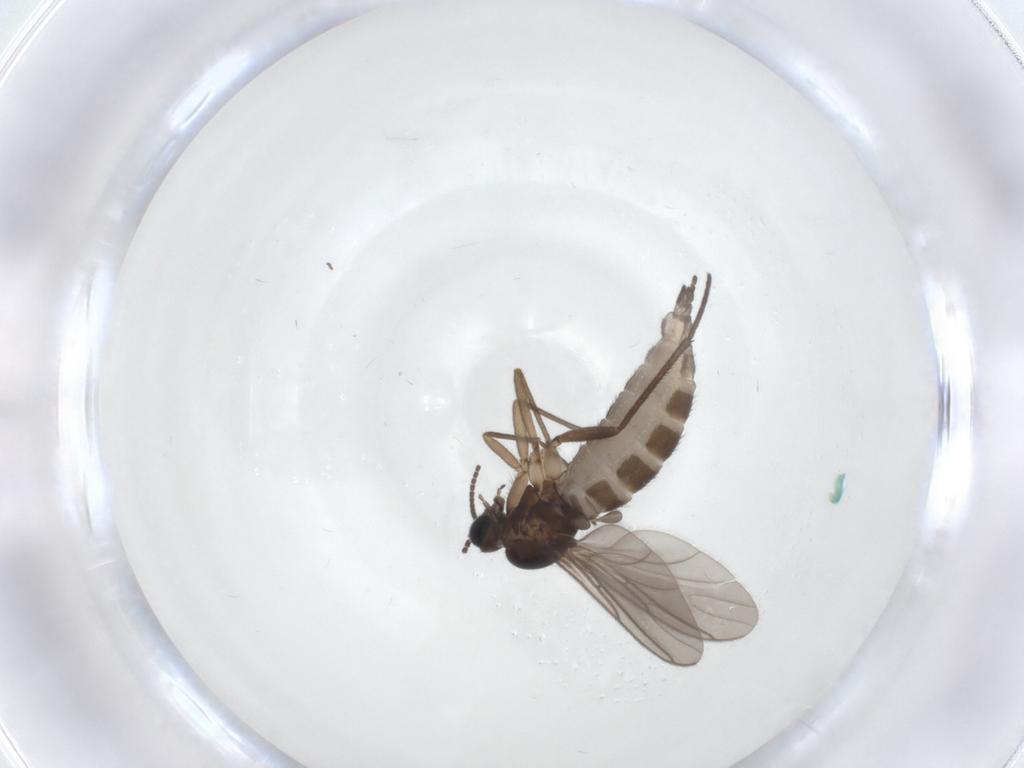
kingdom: Animalia
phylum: Arthropoda
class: Insecta
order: Diptera
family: Sciaridae
